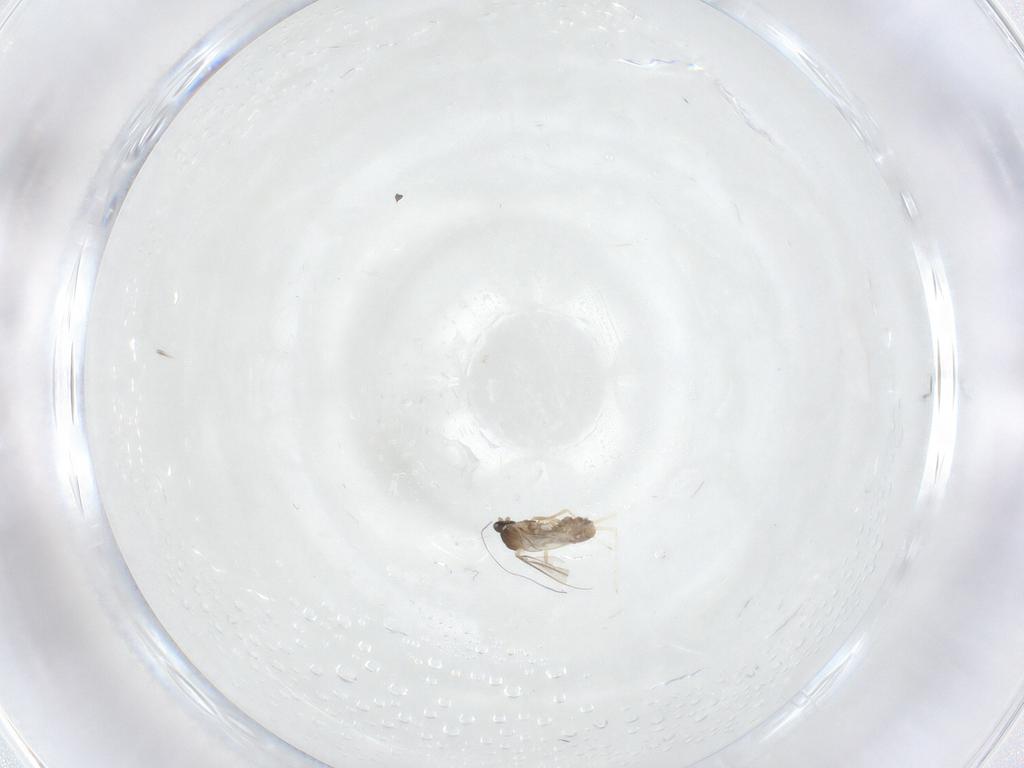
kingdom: Animalia
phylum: Arthropoda
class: Insecta
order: Diptera
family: Cecidomyiidae
